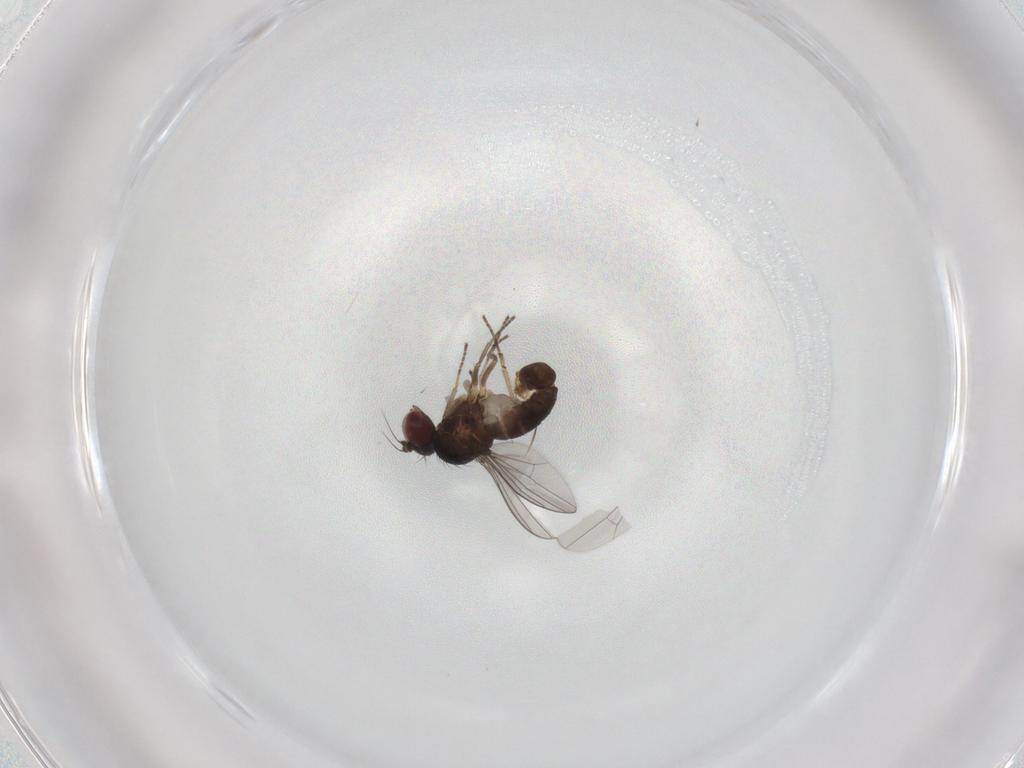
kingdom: Animalia
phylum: Arthropoda
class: Insecta
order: Diptera
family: Dolichopodidae
